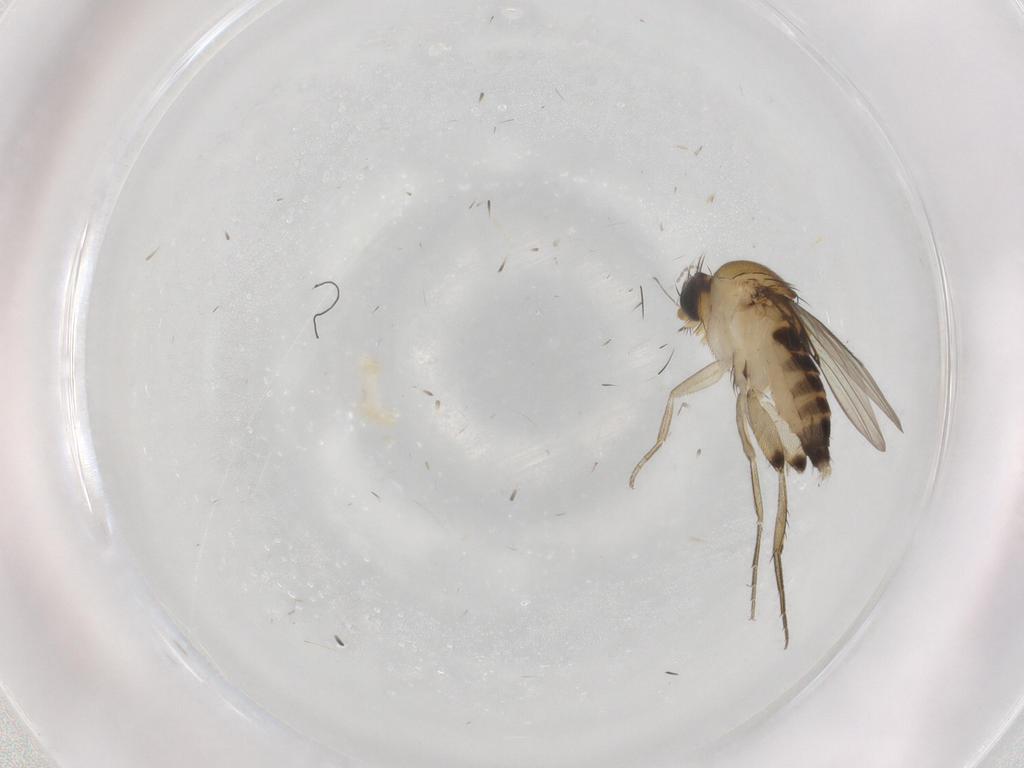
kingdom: Animalia
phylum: Arthropoda
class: Insecta
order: Diptera
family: Phoridae
